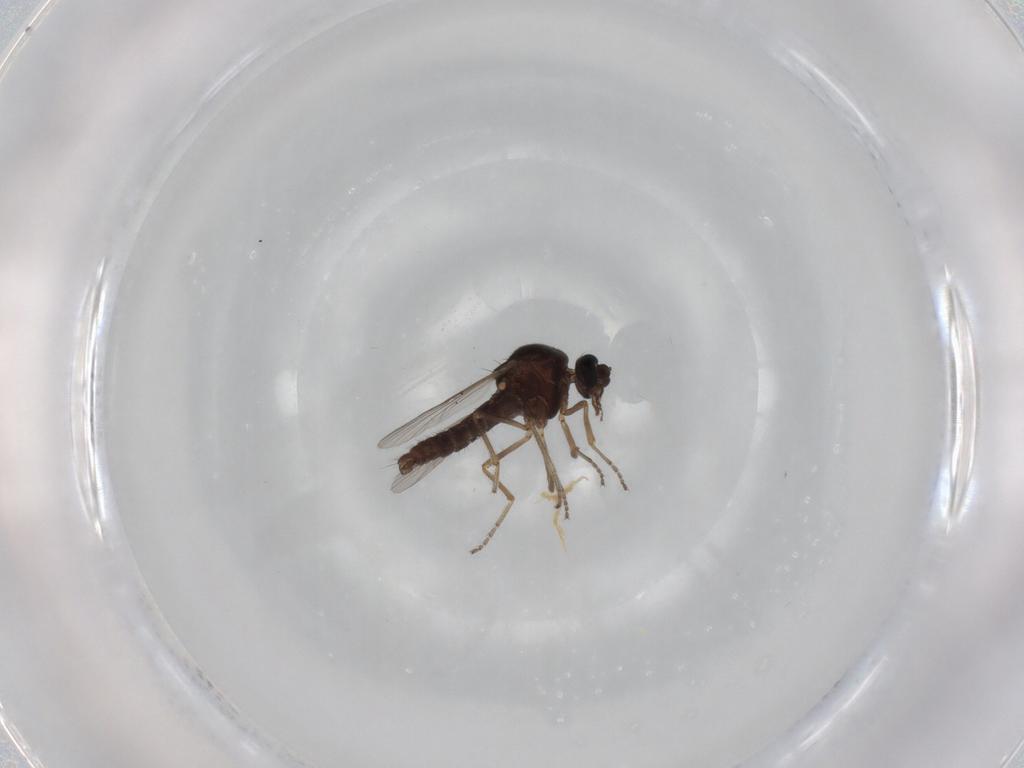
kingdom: Animalia
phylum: Arthropoda
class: Insecta
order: Diptera
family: Ceratopogonidae
